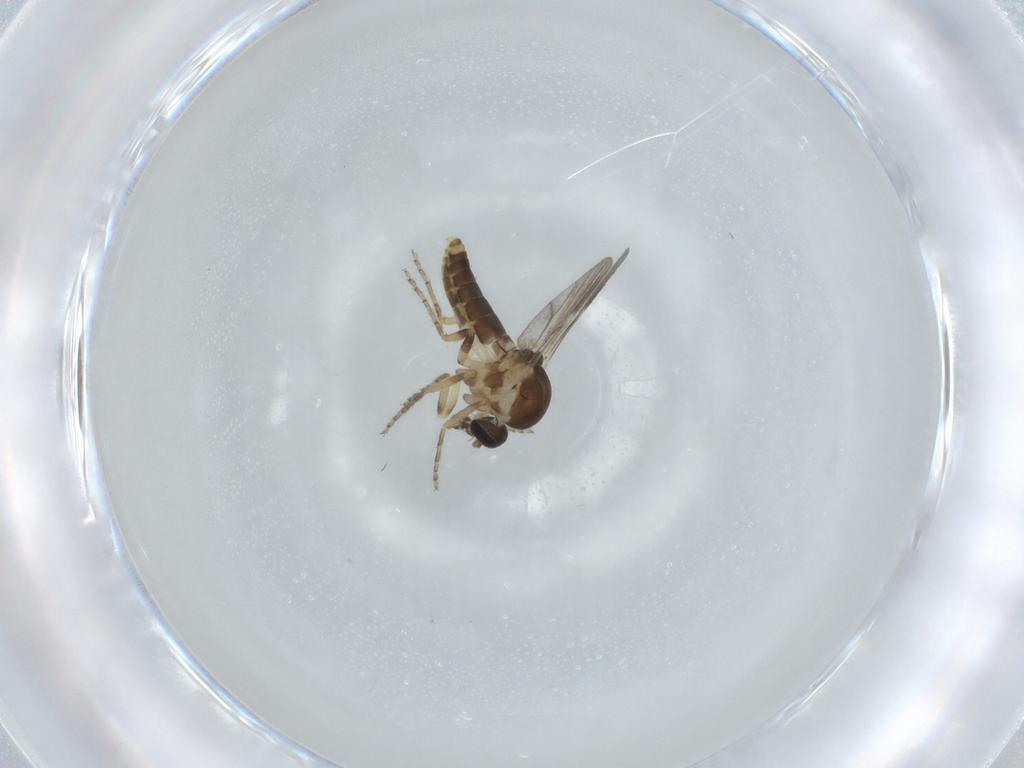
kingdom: Animalia
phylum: Arthropoda
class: Insecta
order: Diptera
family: Ceratopogonidae
